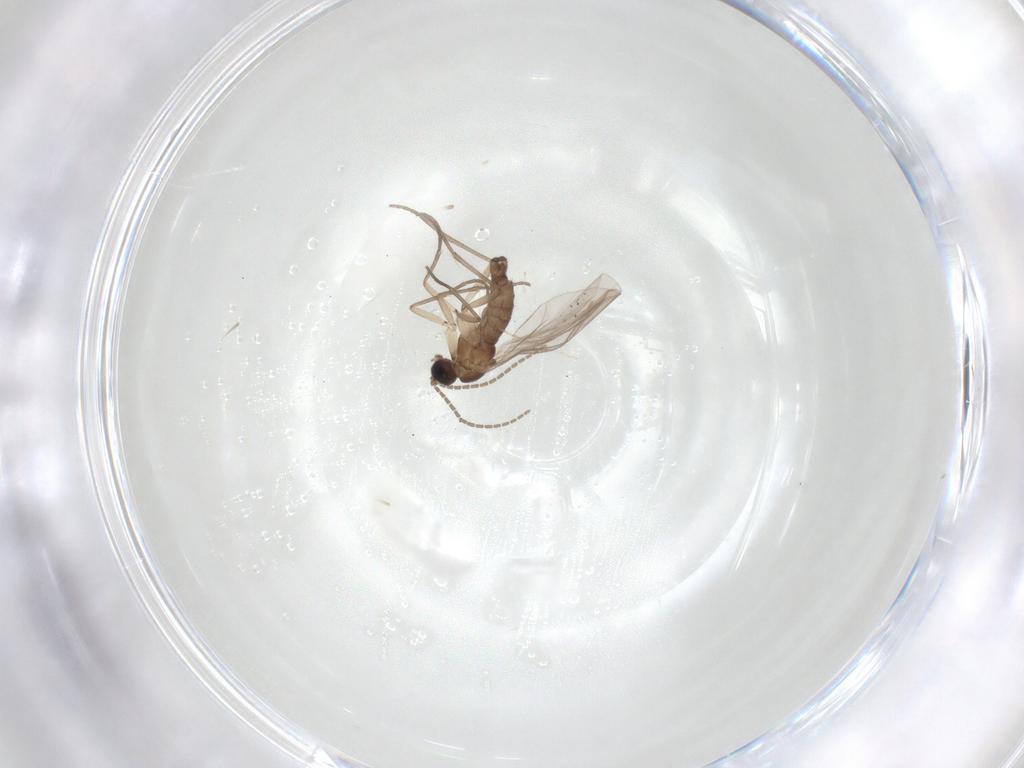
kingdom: Animalia
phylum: Arthropoda
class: Insecta
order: Diptera
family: Sciaridae
